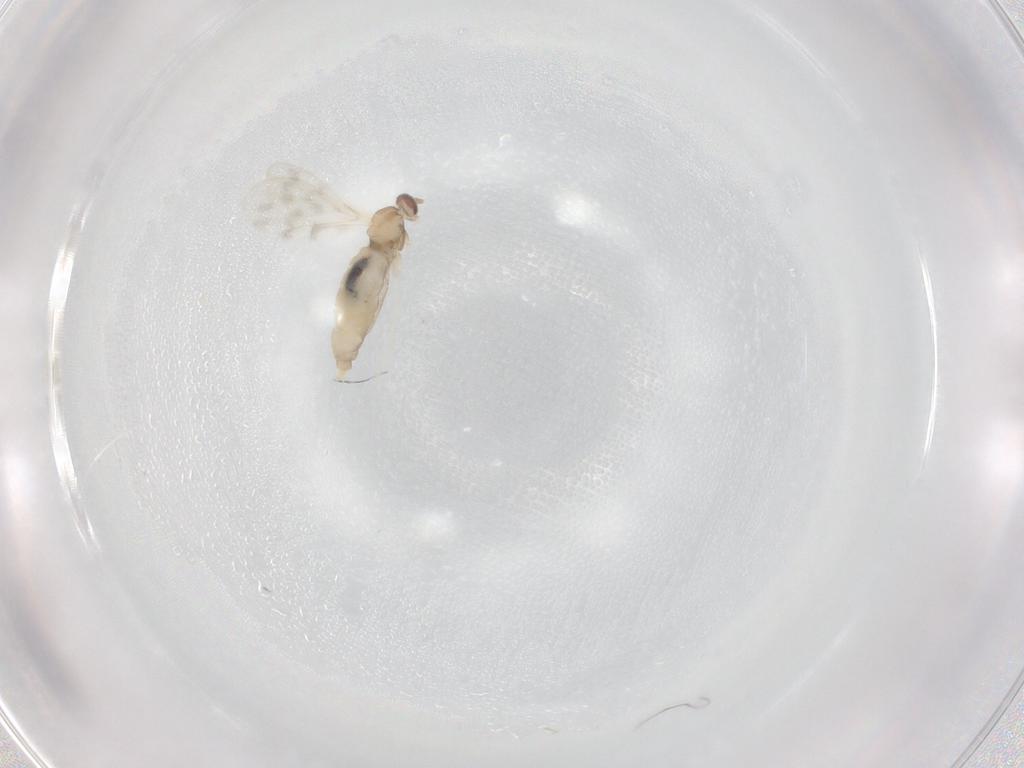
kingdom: Animalia
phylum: Arthropoda
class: Insecta
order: Diptera
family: Cecidomyiidae
